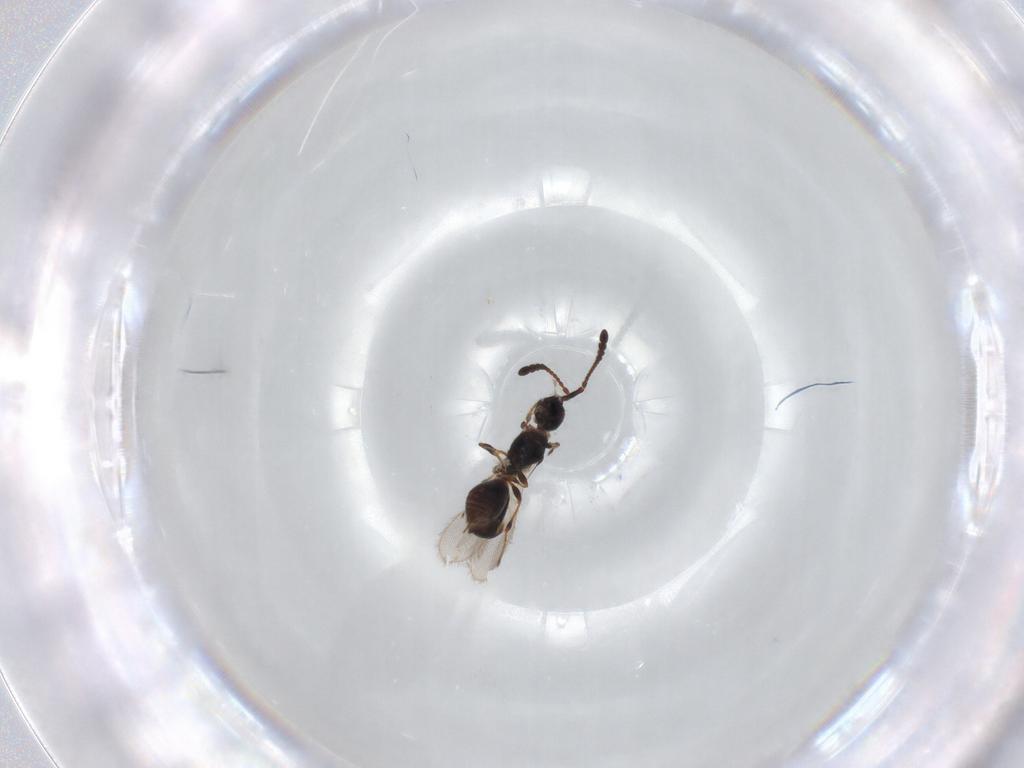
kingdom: Animalia
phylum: Arthropoda
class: Insecta
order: Hymenoptera
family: Diapriidae
